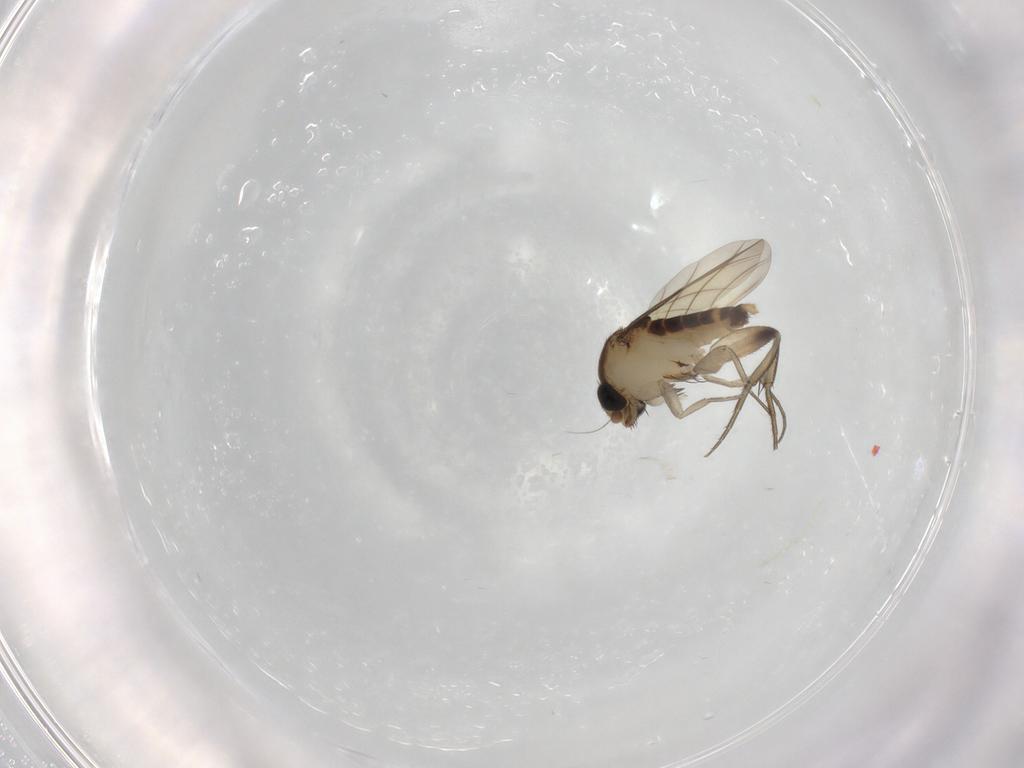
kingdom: Animalia
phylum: Arthropoda
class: Insecta
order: Diptera
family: Phoridae
